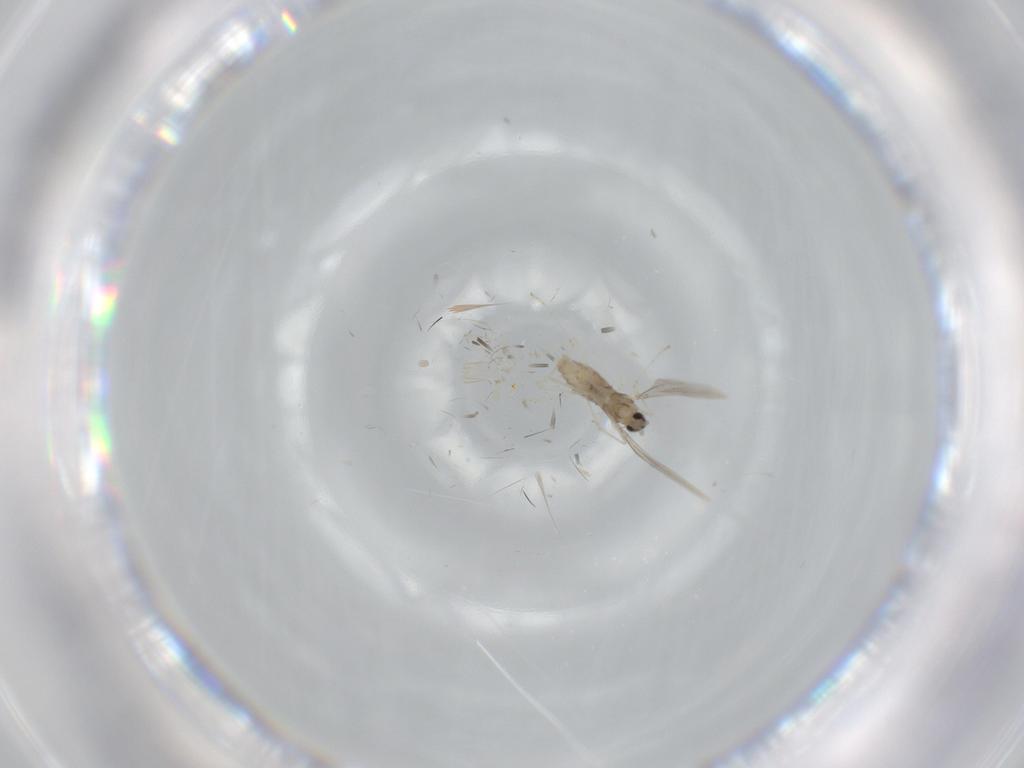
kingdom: Animalia
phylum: Arthropoda
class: Insecta
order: Diptera
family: Cecidomyiidae
